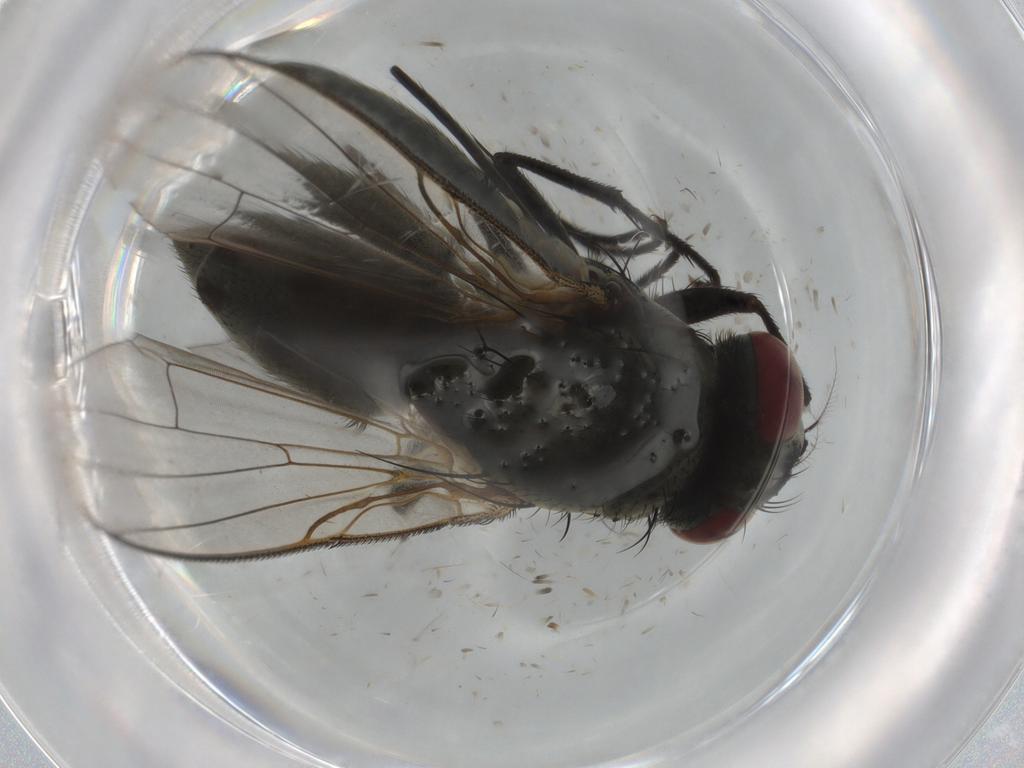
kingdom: Animalia
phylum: Arthropoda
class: Insecta
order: Diptera
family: Muscidae
